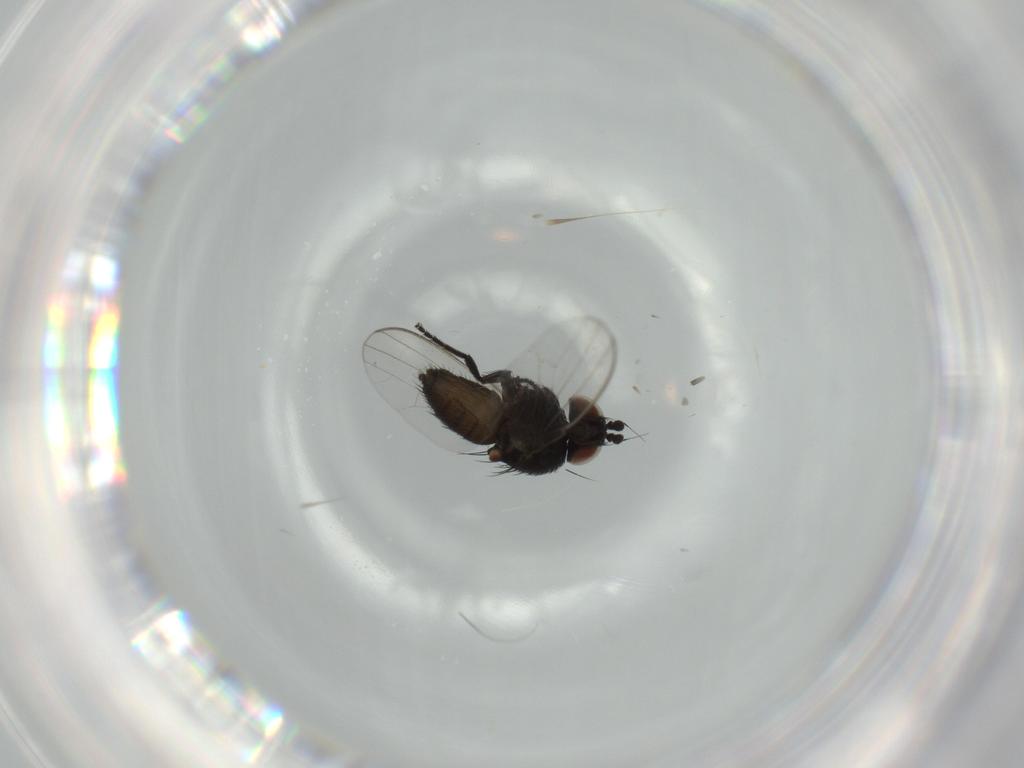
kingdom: Animalia
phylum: Arthropoda
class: Insecta
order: Diptera
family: Milichiidae
